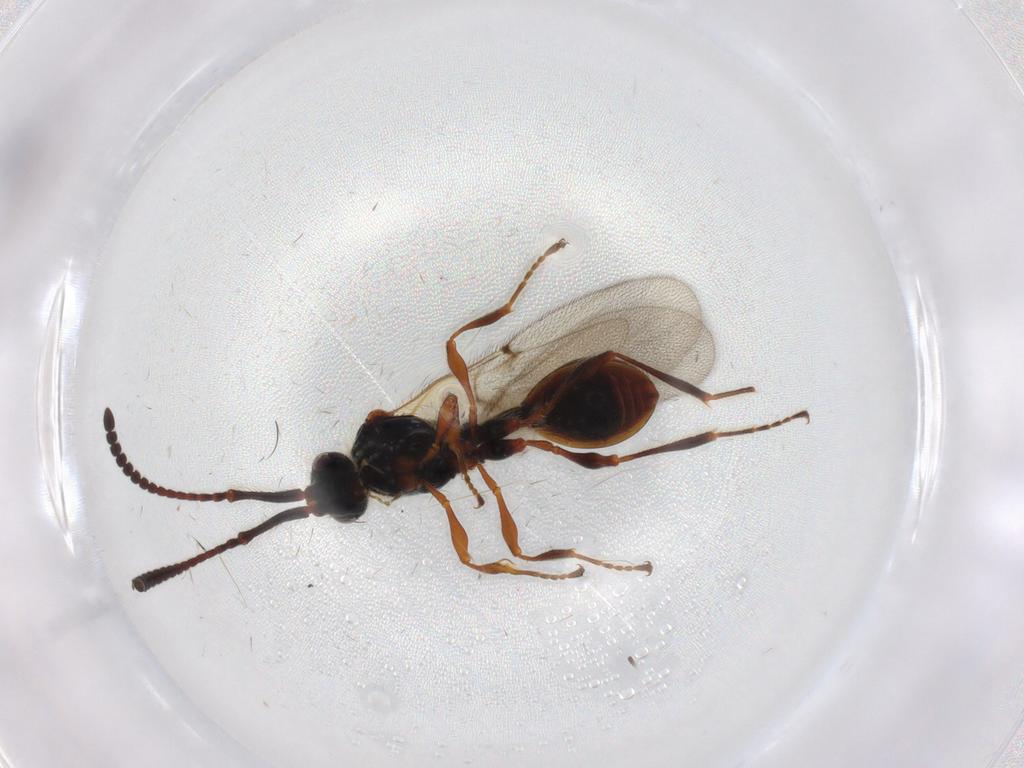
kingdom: Animalia
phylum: Arthropoda
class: Insecta
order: Hymenoptera
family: Diapriidae
